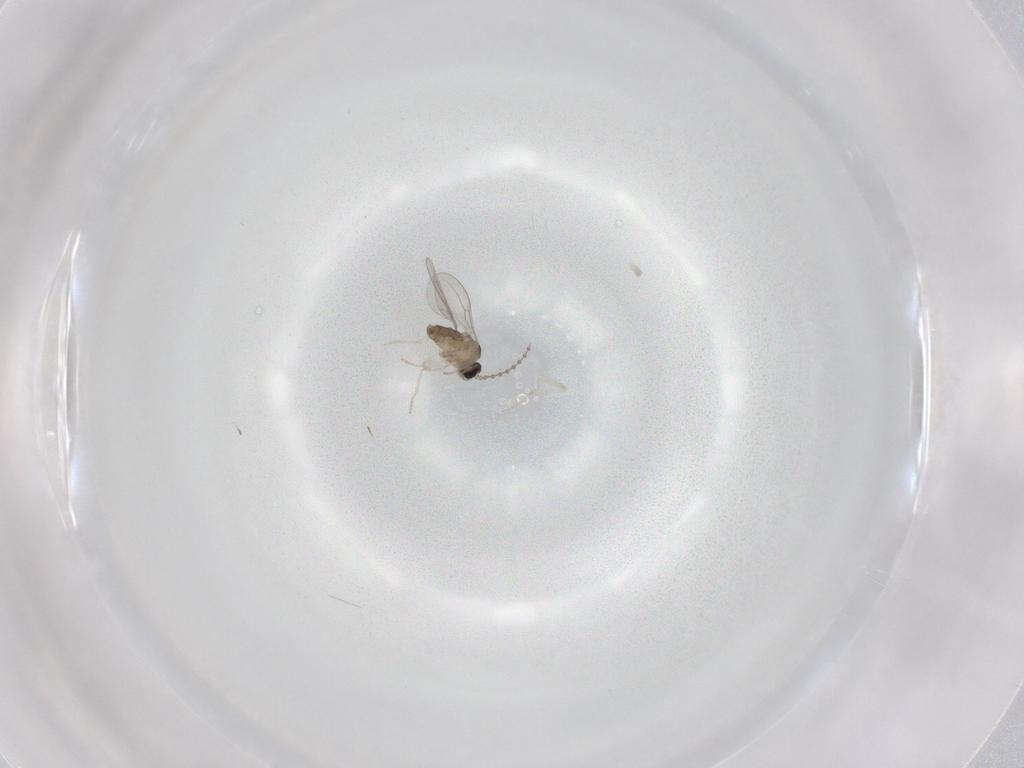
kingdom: Animalia
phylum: Arthropoda
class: Insecta
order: Diptera
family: Cecidomyiidae
